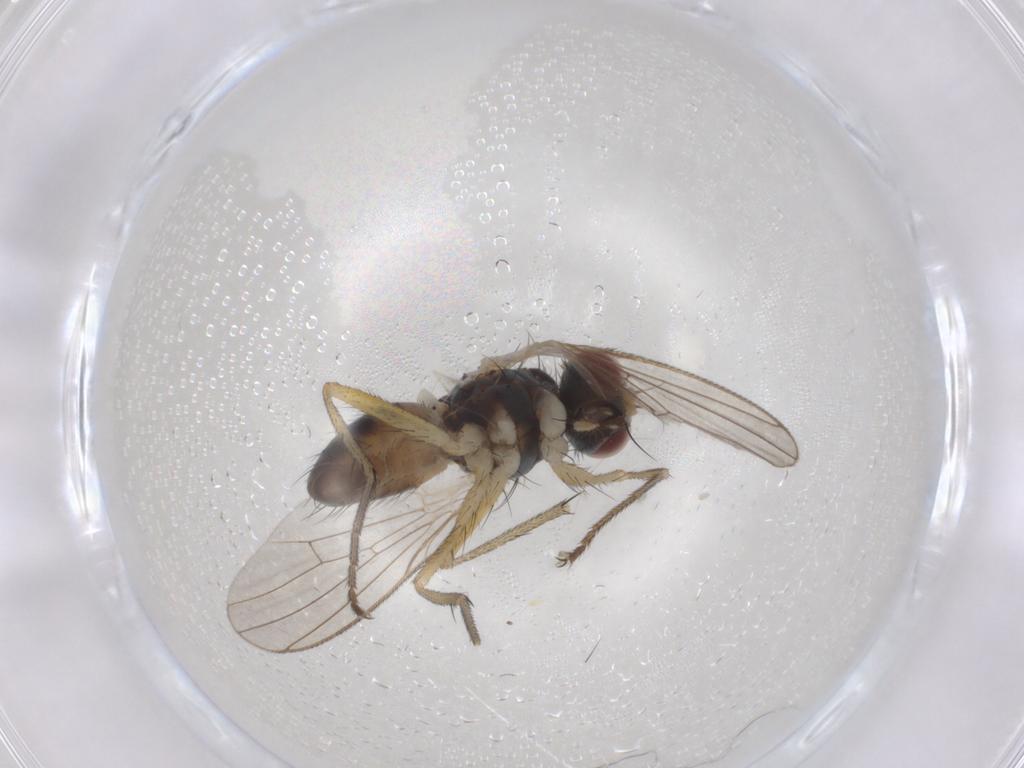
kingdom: Animalia
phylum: Arthropoda
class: Insecta
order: Diptera
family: Muscidae
